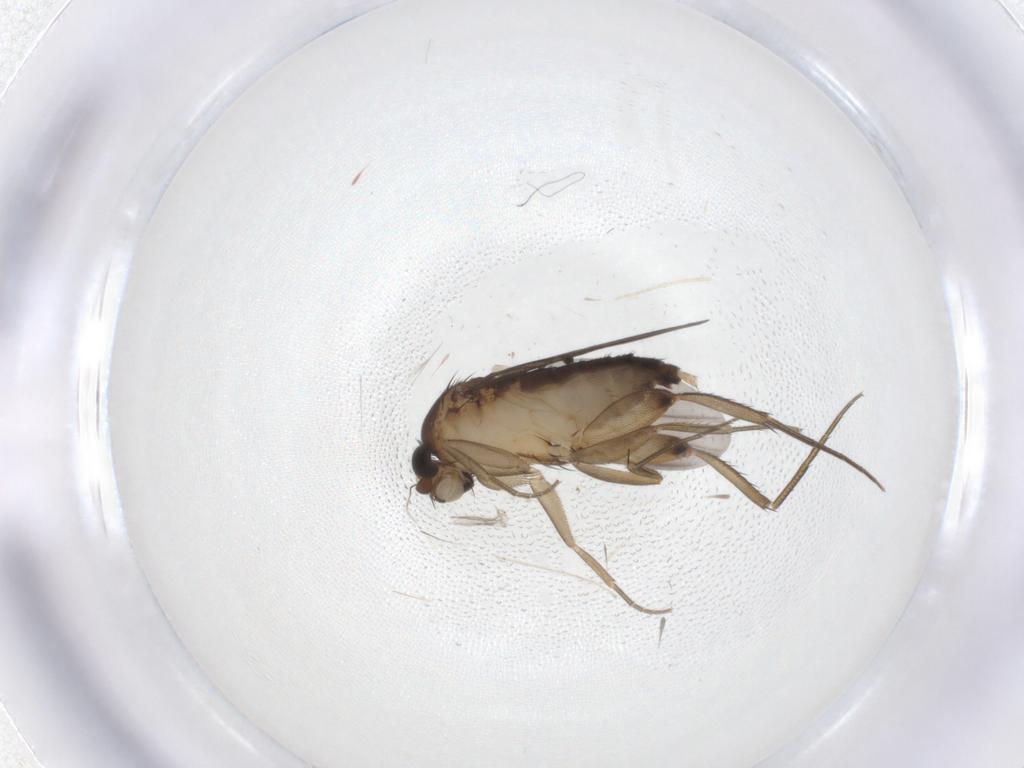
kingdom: Animalia
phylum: Arthropoda
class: Insecta
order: Diptera
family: Phoridae
